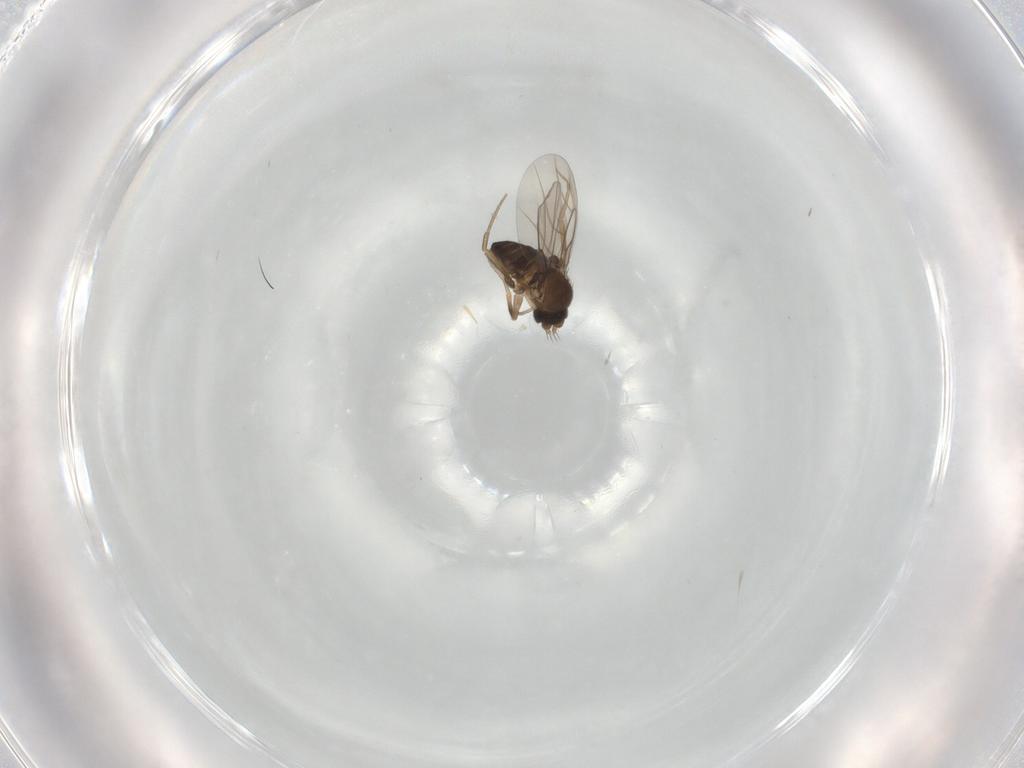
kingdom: Animalia
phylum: Arthropoda
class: Insecta
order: Diptera
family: Phoridae
